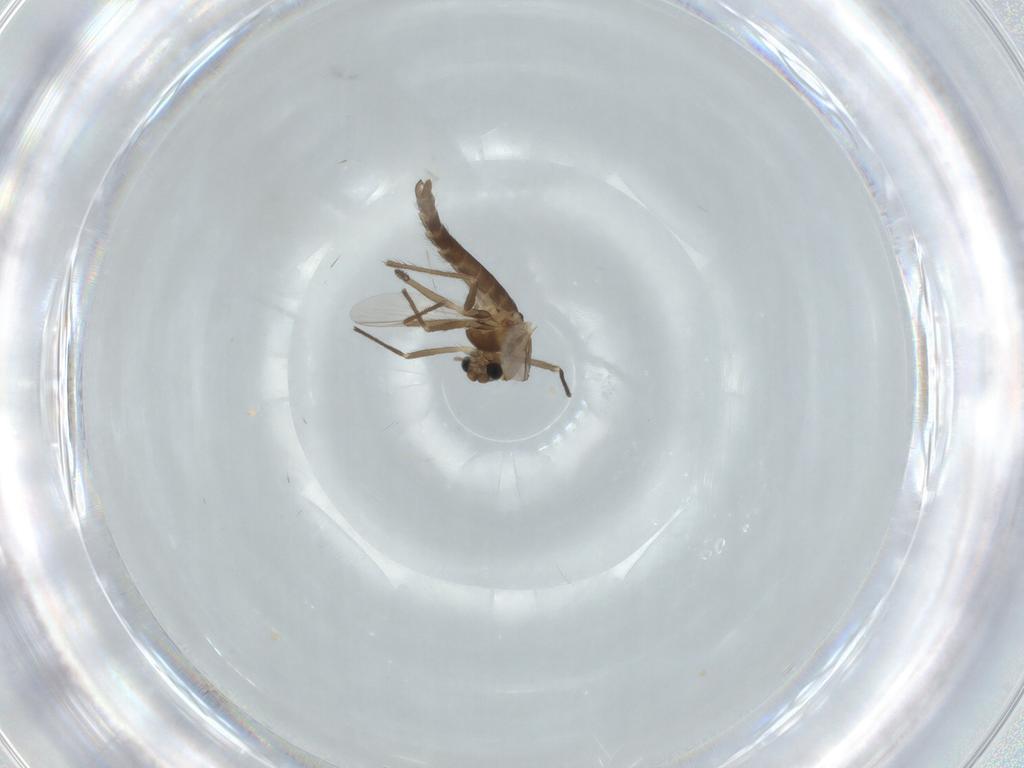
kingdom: Animalia
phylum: Arthropoda
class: Insecta
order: Diptera
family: Chironomidae
